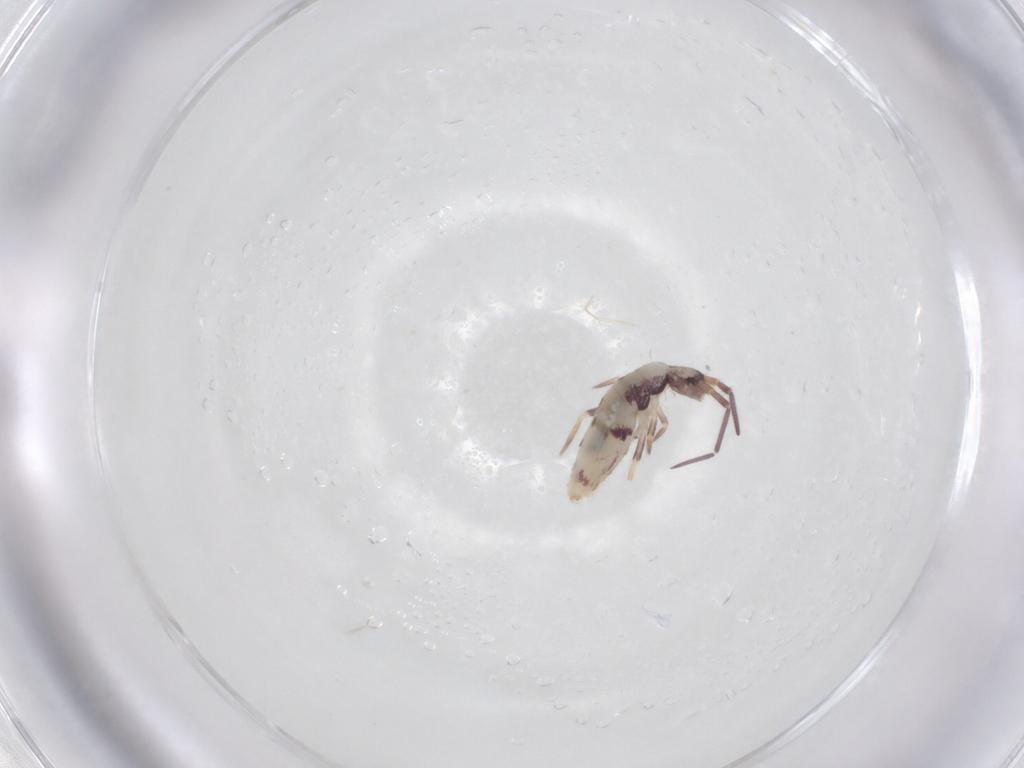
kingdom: Animalia
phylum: Arthropoda
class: Collembola
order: Entomobryomorpha
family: Entomobryidae
